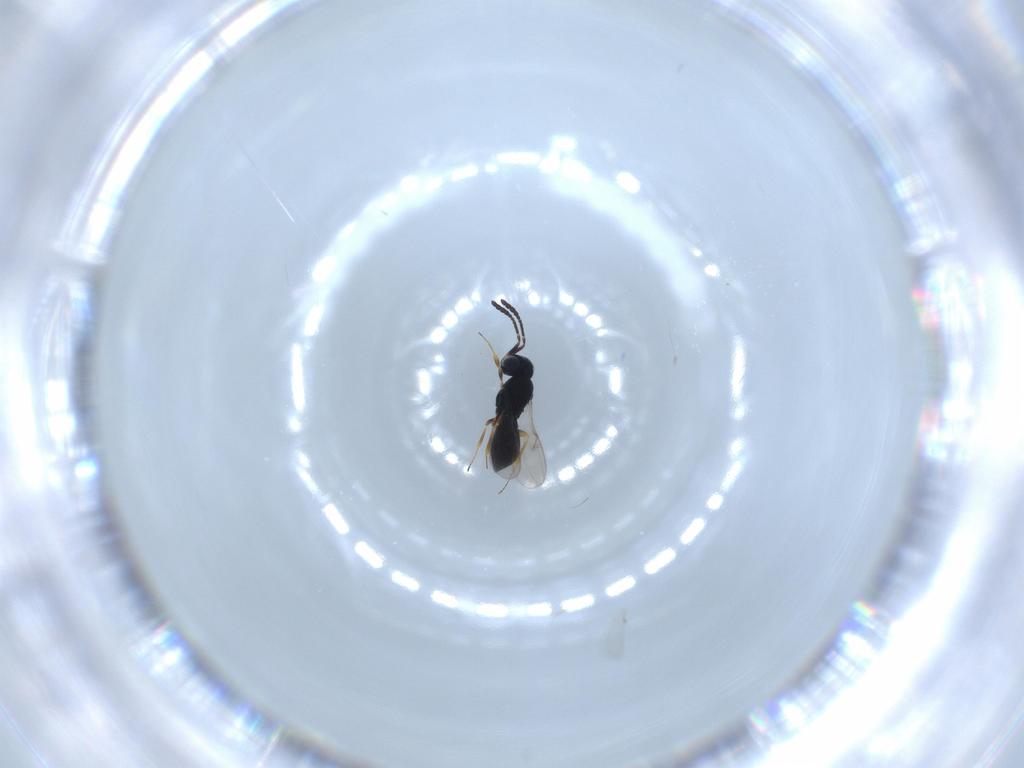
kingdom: Animalia
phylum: Arthropoda
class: Insecta
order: Hymenoptera
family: Scelionidae
